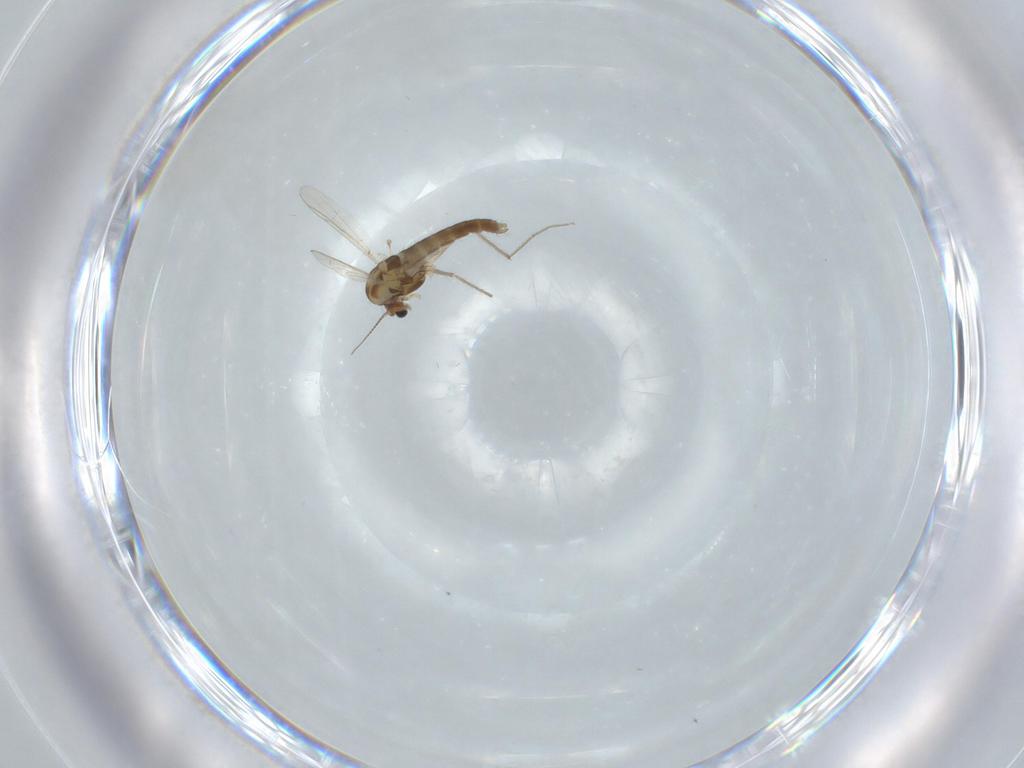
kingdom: Animalia
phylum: Arthropoda
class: Insecta
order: Diptera
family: Chironomidae
